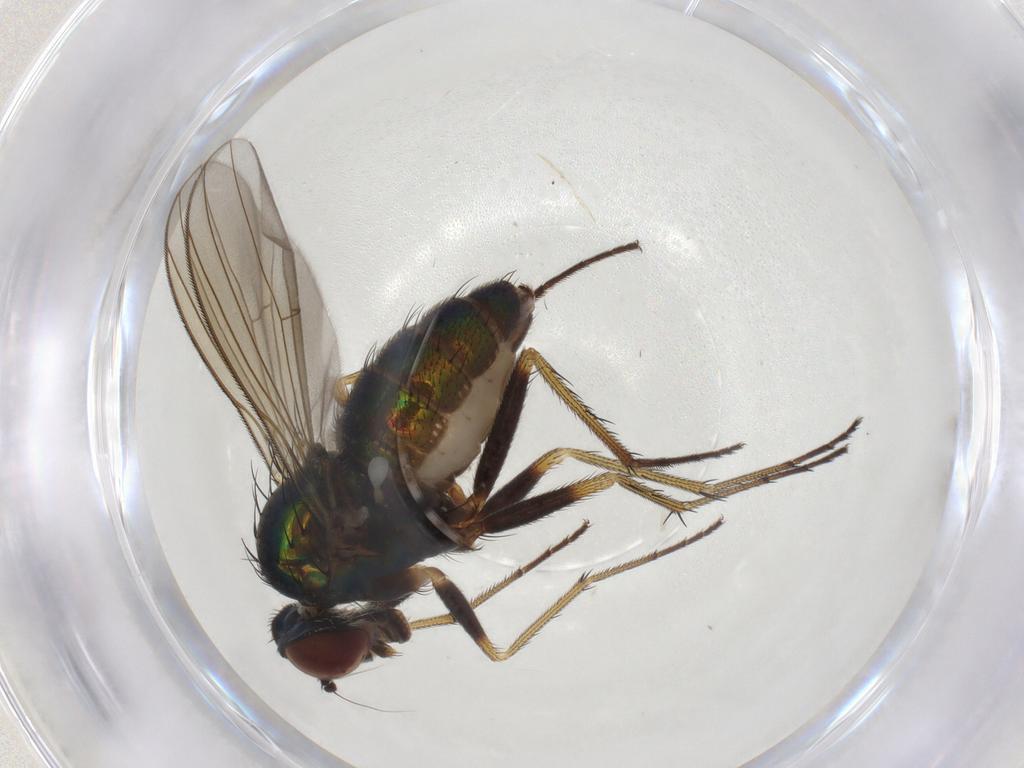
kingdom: Animalia
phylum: Arthropoda
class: Insecta
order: Diptera
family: Dolichopodidae
